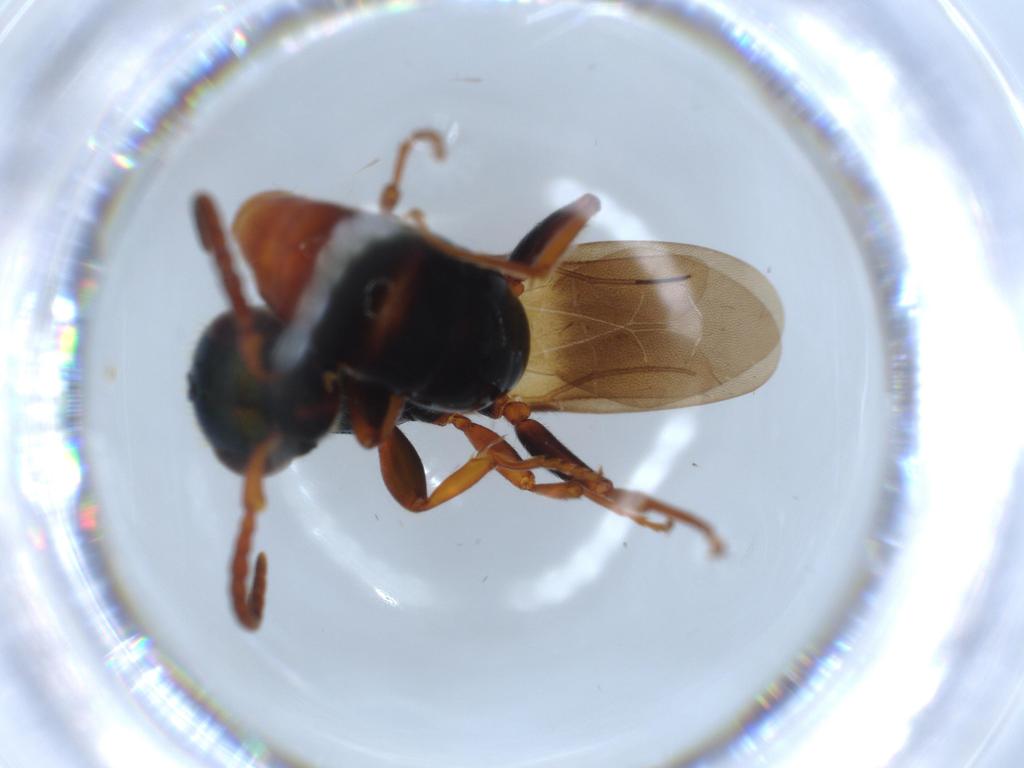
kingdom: Animalia
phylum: Arthropoda
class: Insecta
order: Hymenoptera
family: Bethylidae
